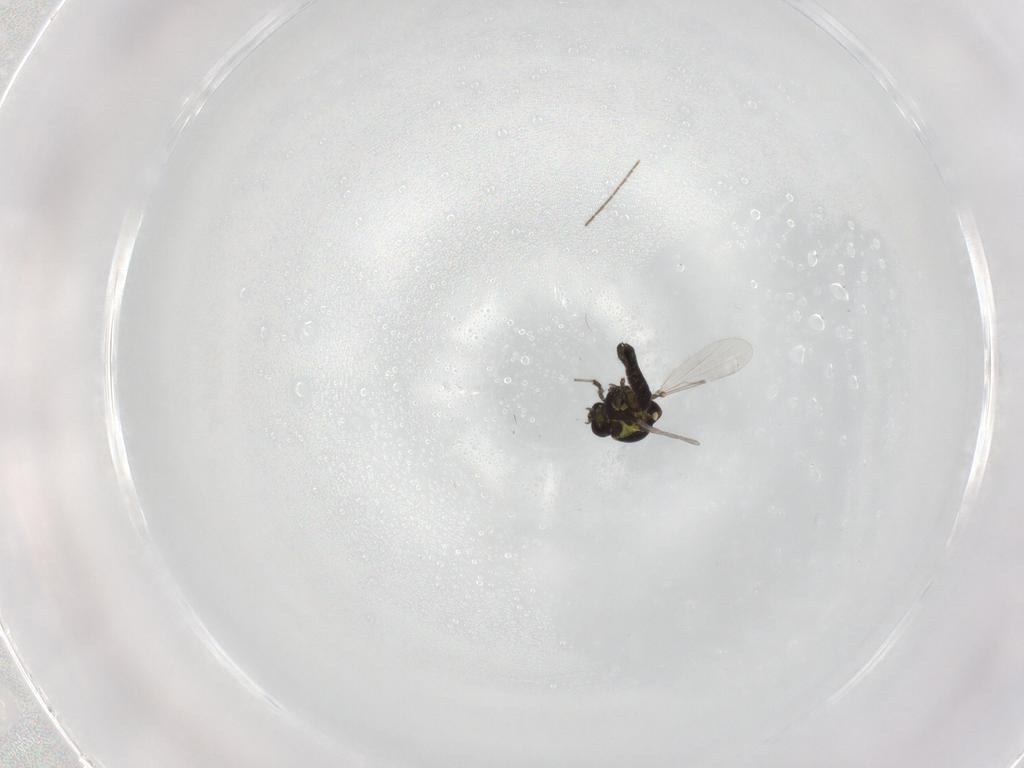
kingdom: Animalia
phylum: Arthropoda
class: Insecta
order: Diptera
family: Ceratopogonidae
